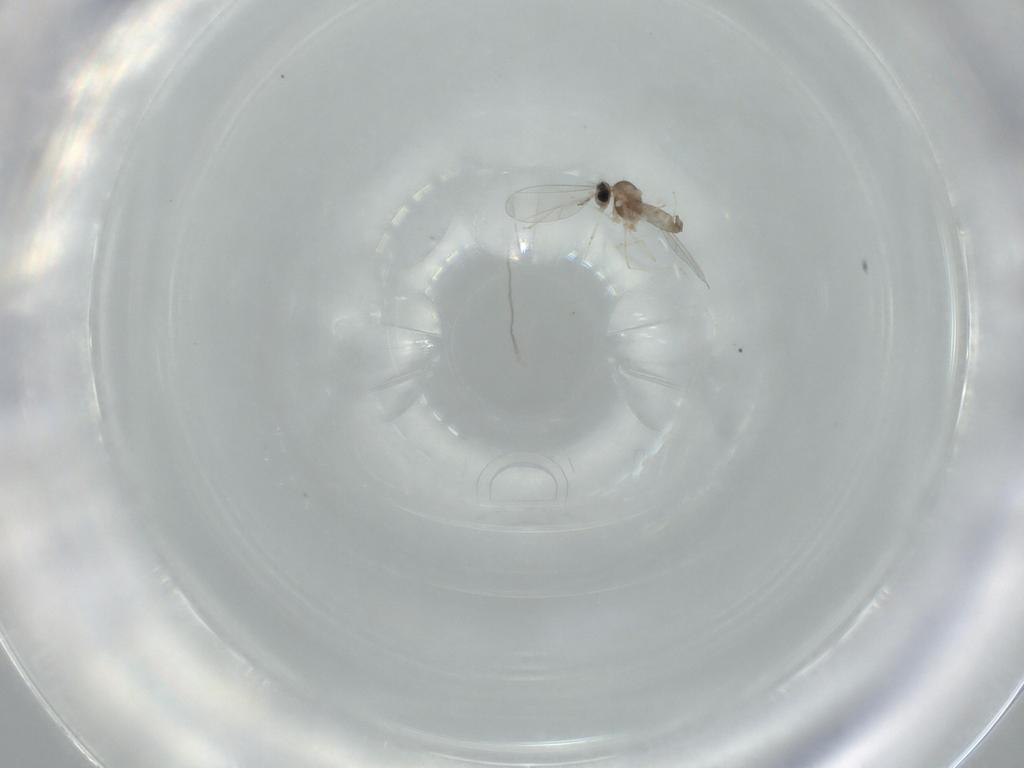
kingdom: Animalia
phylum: Arthropoda
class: Insecta
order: Diptera
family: Cecidomyiidae
